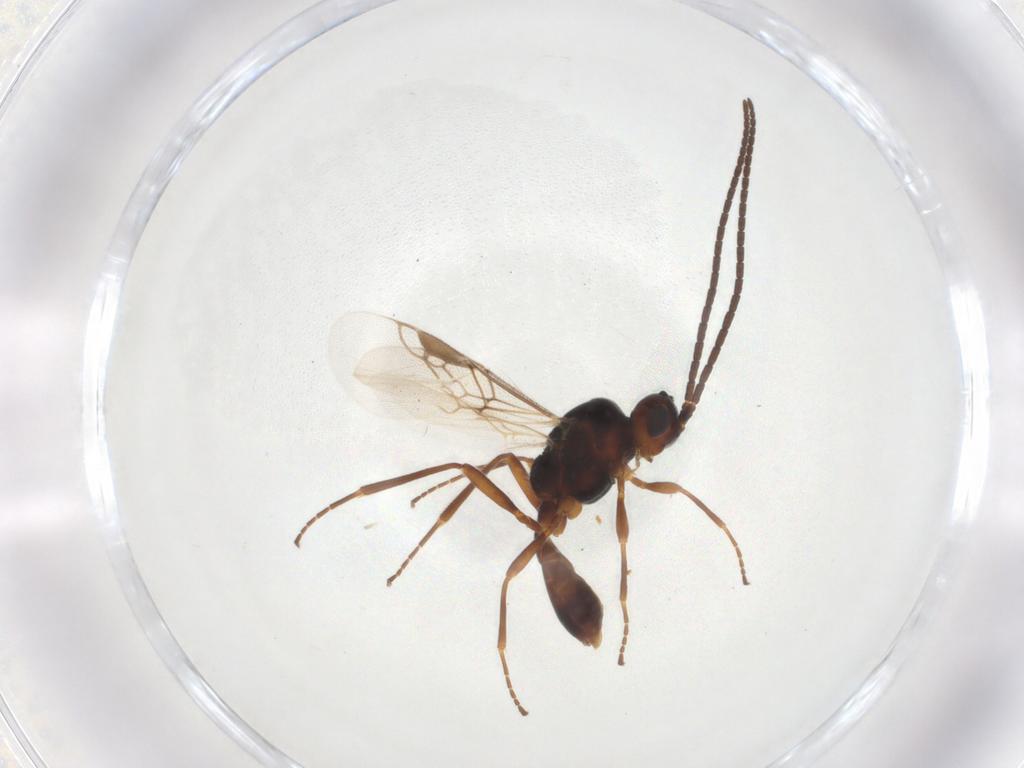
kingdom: Animalia
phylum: Arthropoda
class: Insecta
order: Hymenoptera
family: Braconidae
